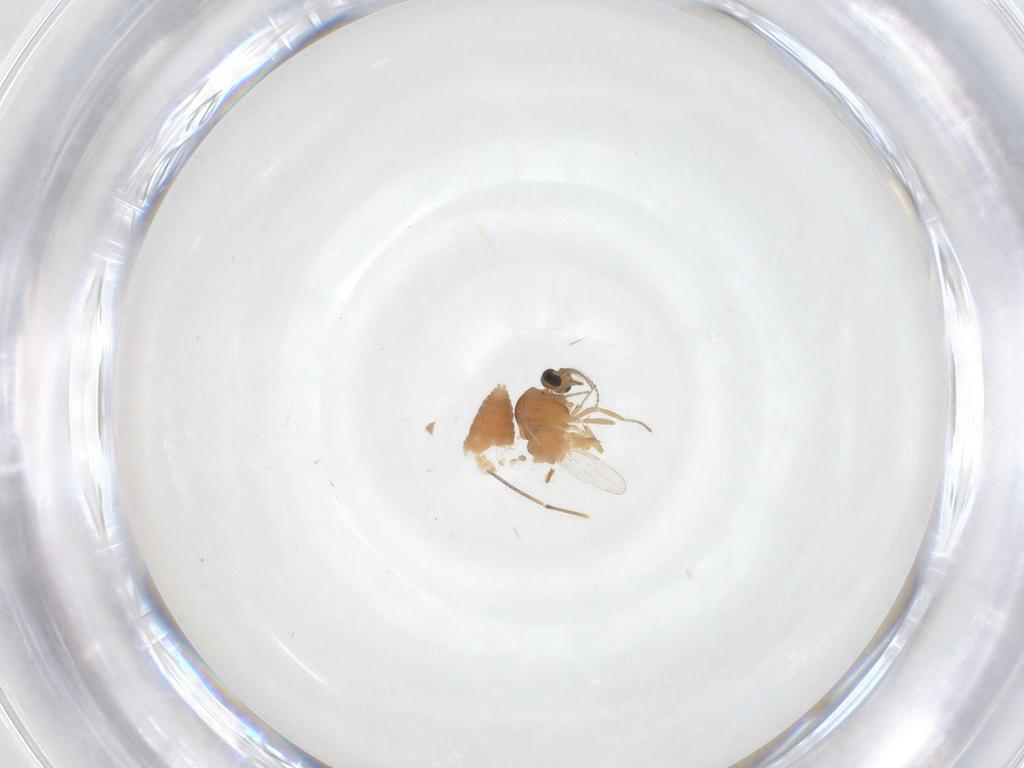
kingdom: Animalia
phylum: Arthropoda
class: Insecta
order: Diptera
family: Ceratopogonidae
